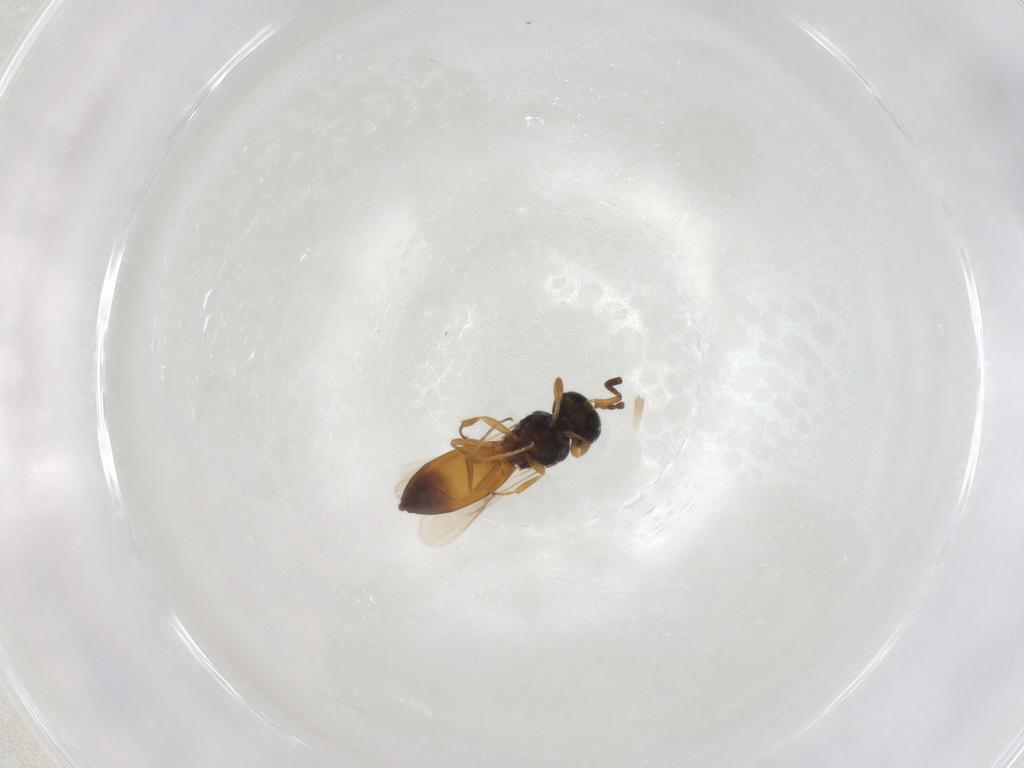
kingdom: Animalia
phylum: Arthropoda
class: Insecta
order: Hymenoptera
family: Scelionidae
